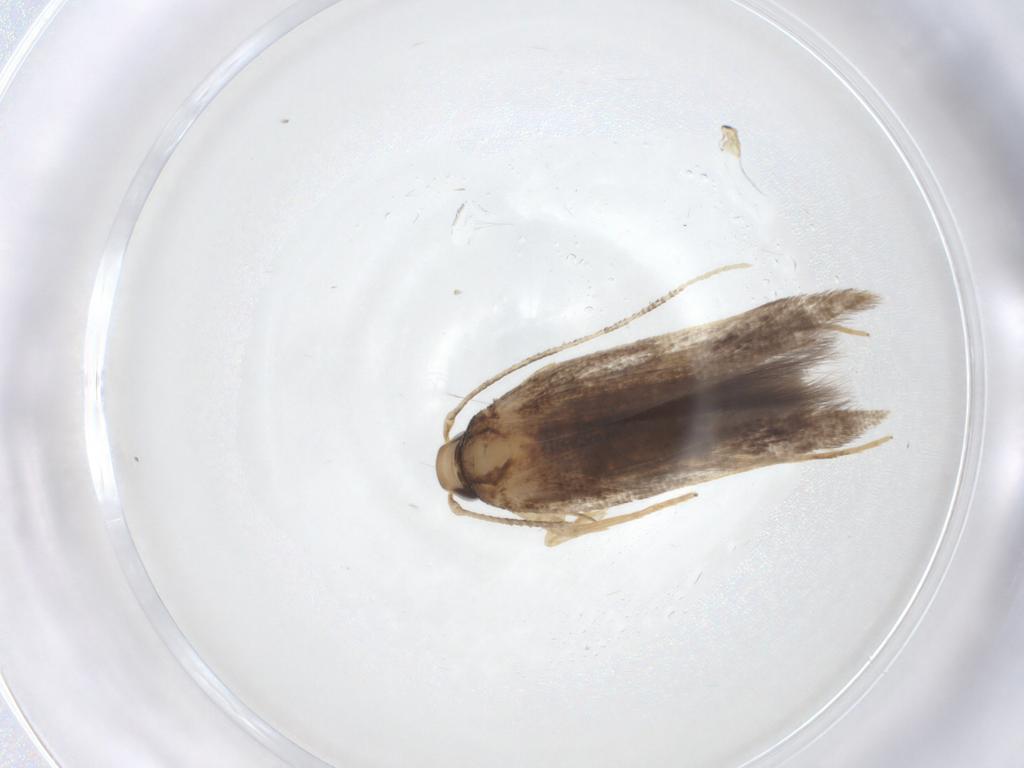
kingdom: Animalia
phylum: Arthropoda
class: Insecta
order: Lepidoptera
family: Cosmopterigidae
